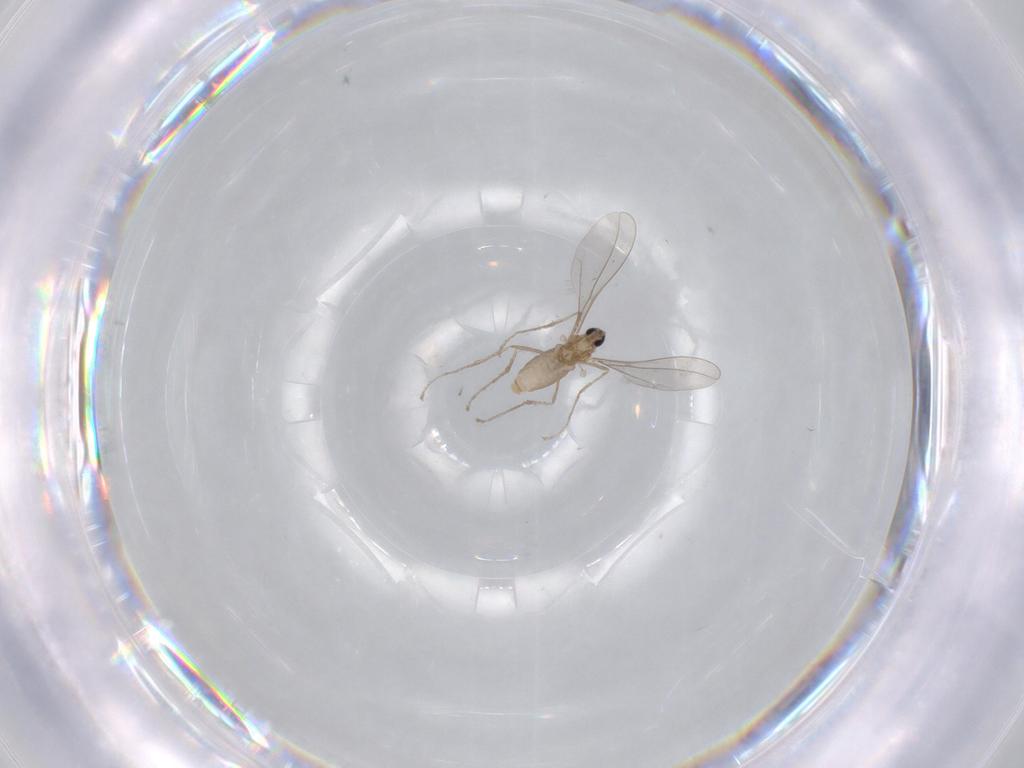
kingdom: Animalia
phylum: Arthropoda
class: Insecta
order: Diptera
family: Cecidomyiidae
